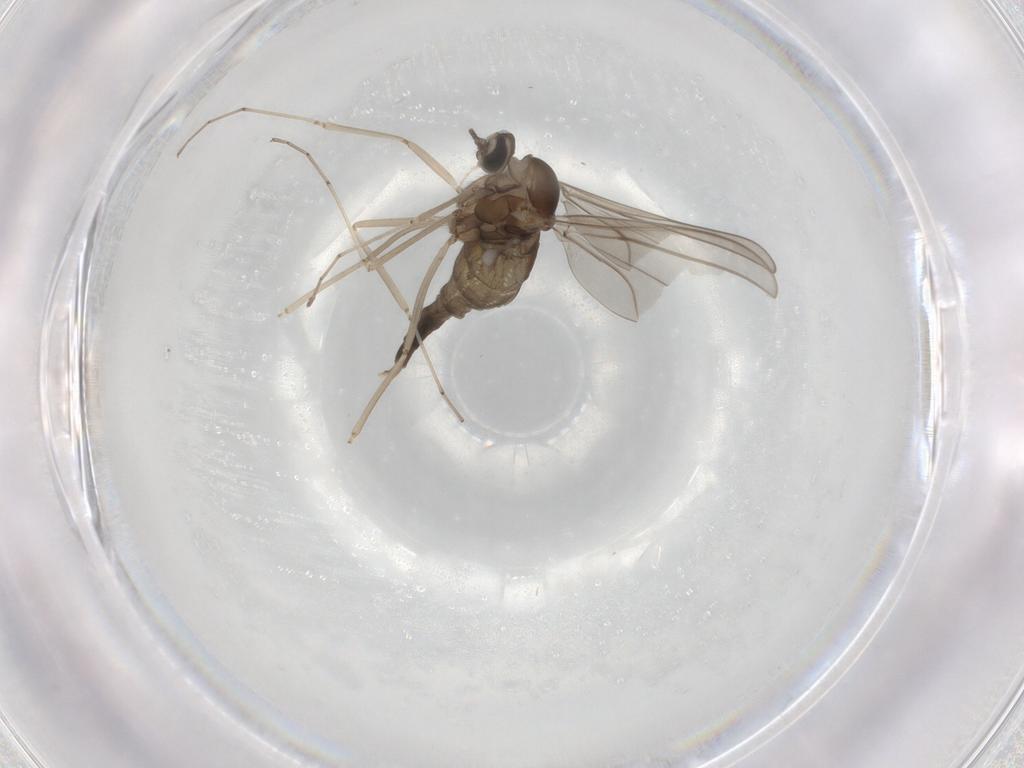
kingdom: Animalia
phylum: Arthropoda
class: Insecta
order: Diptera
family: Cecidomyiidae
